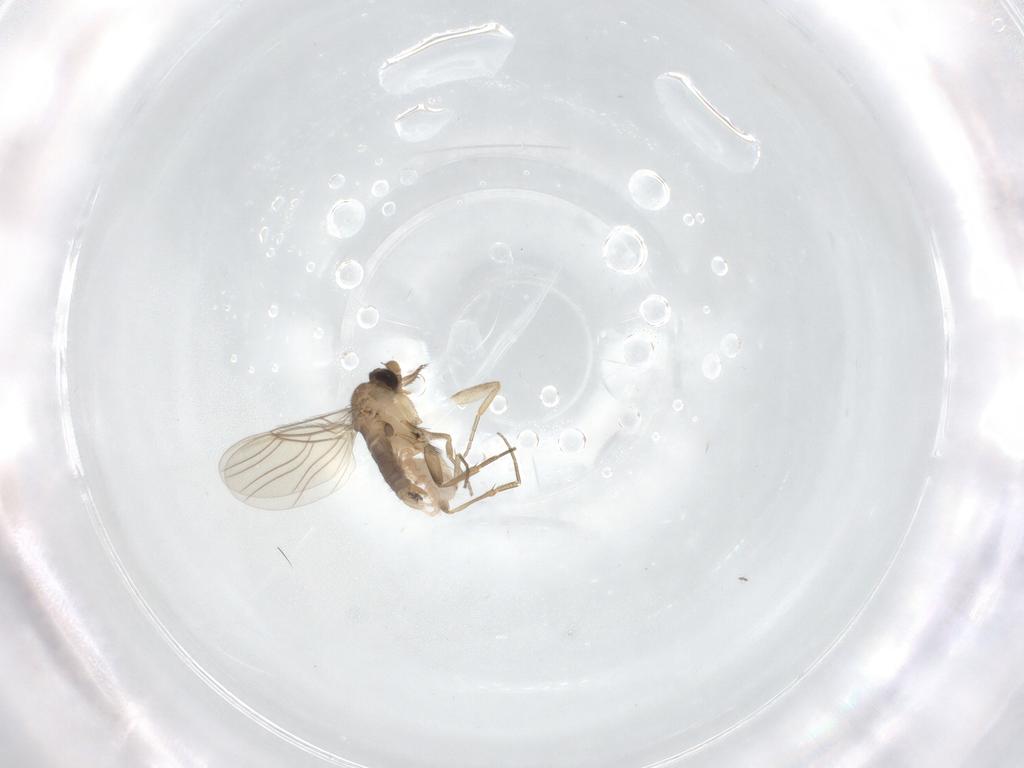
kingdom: Animalia
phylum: Arthropoda
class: Insecta
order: Diptera
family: Phoridae
